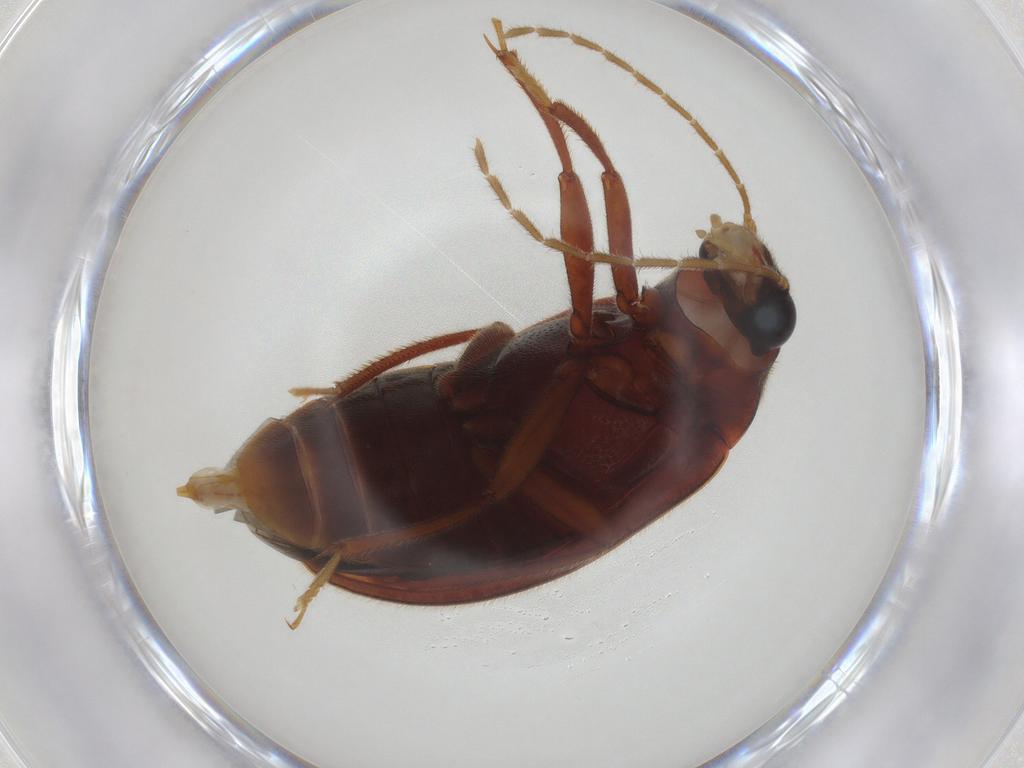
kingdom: Animalia
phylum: Arthropoda
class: Insecta
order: Coleoptera
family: Ptilodactylidae
